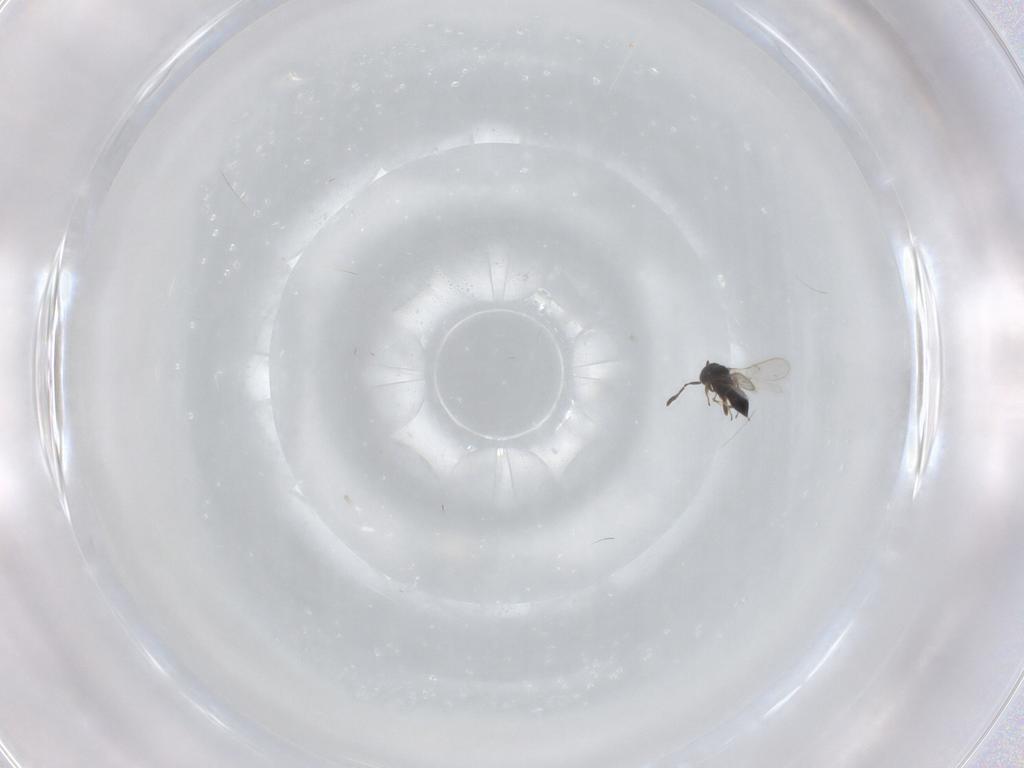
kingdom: Animalia
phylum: Arthropoda
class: Insecta
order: Hymenoptera
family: Scelionidae
